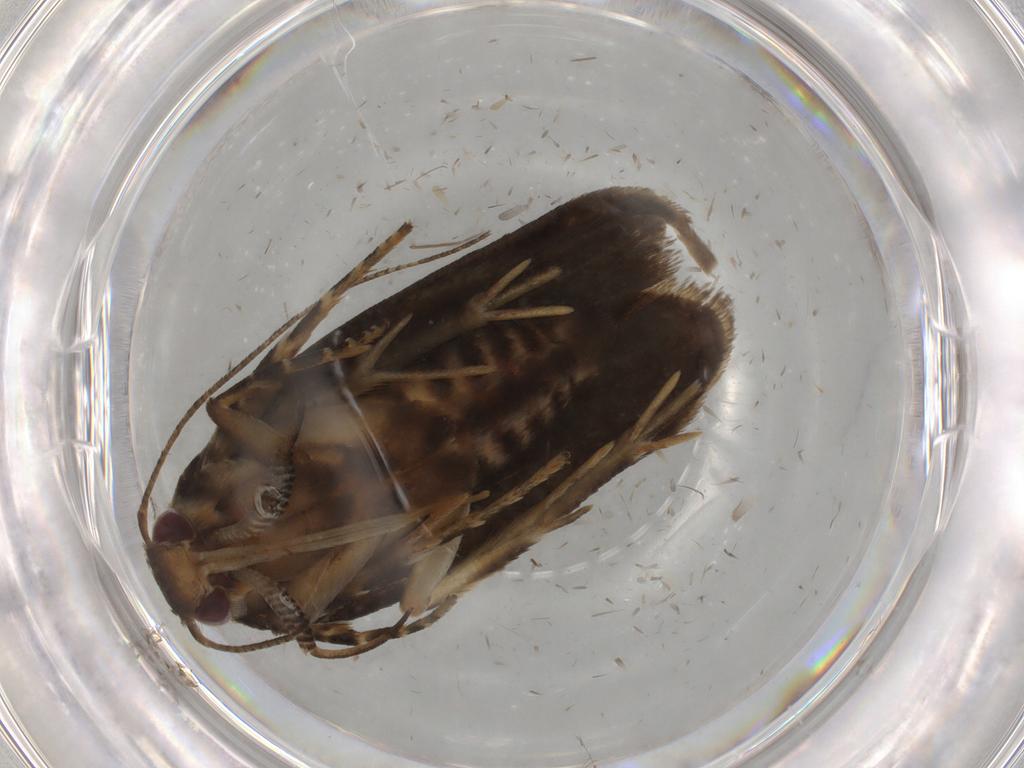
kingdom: Animalia
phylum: Arthropoda
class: Insecta
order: Lepidoptera
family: Gelechiidae
